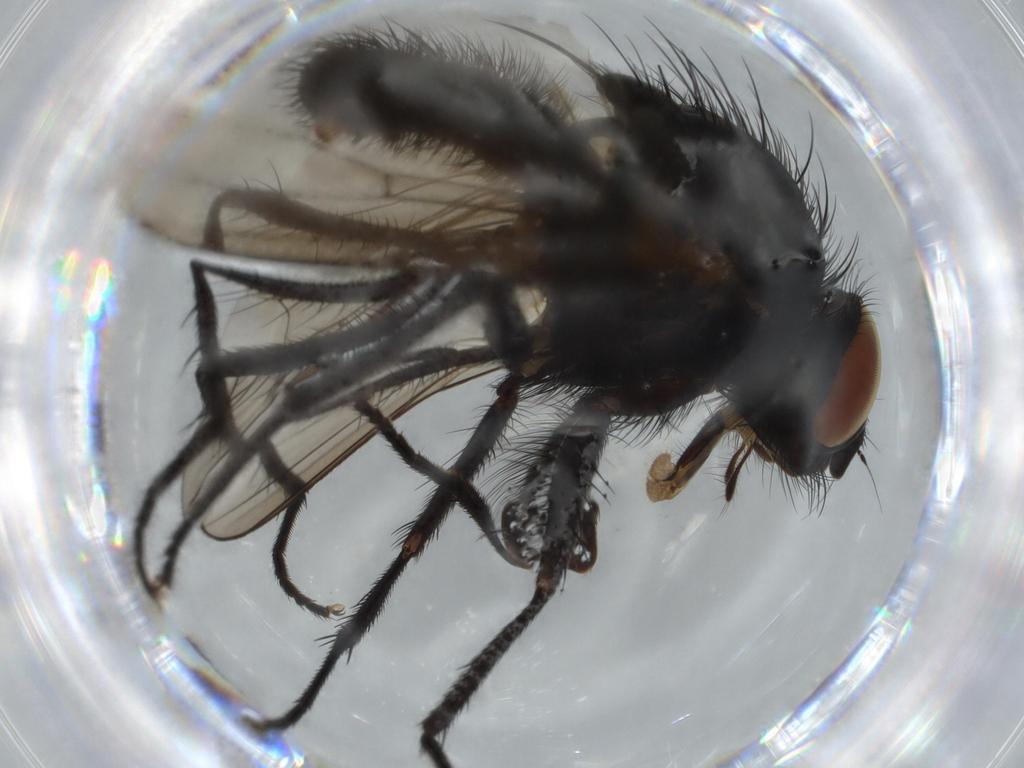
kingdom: Animalia
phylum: Arthropoda
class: Insecta
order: Diptera
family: Anthomyiidae
